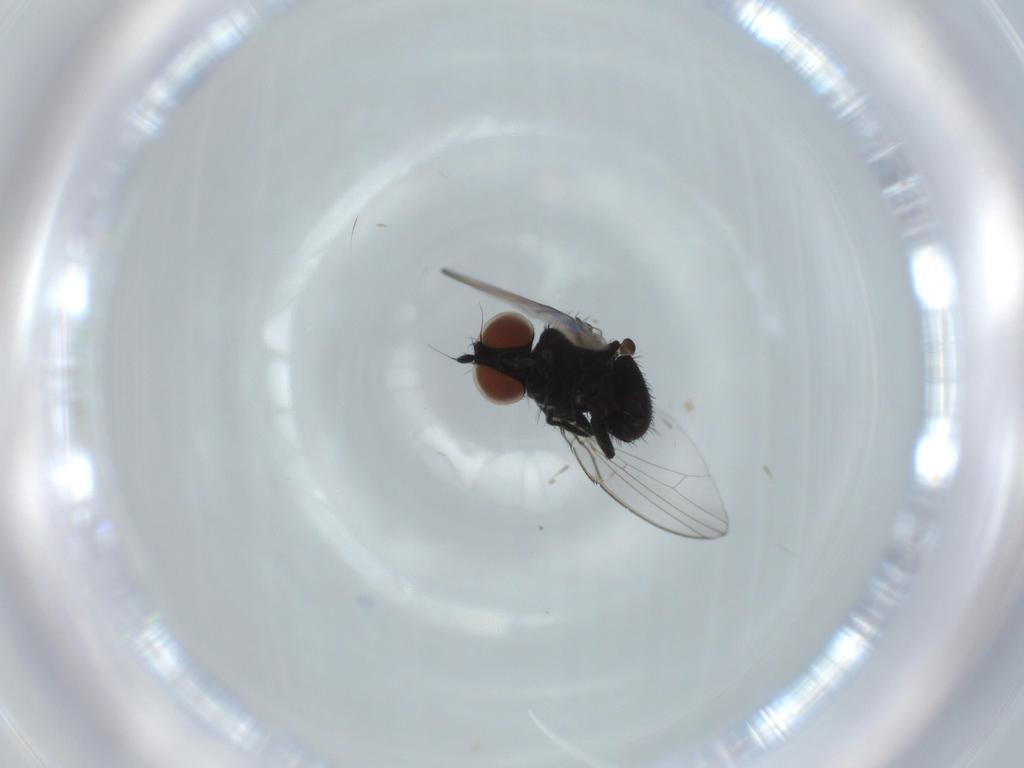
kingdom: Animalia
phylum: Arthropoda
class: Insecta
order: Diptera
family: Milichiidae
